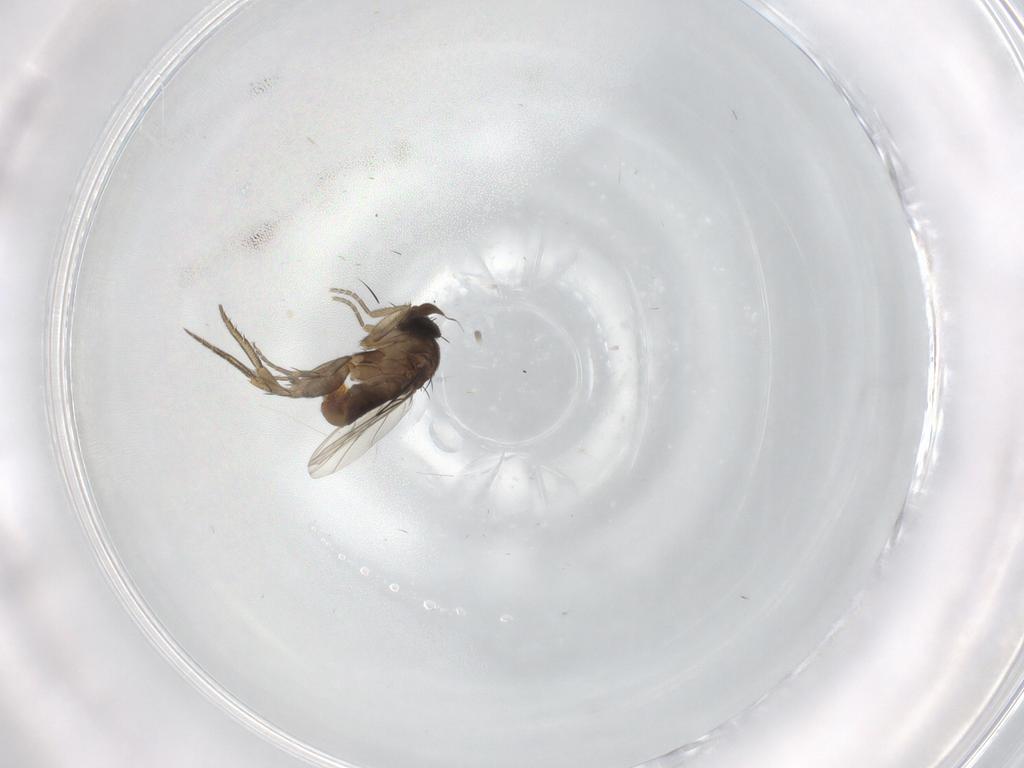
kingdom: Animalia
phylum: Arthropoda
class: Insecta
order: Diptera
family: Phoridae
